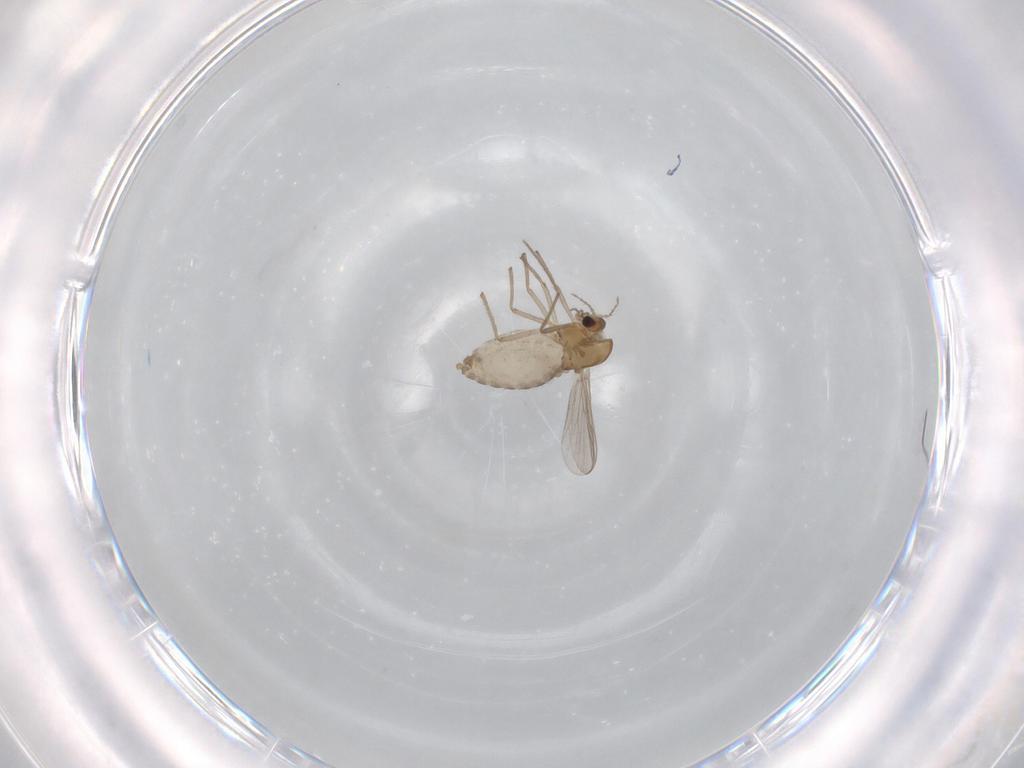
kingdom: Animalia
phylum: Arthropoda
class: Insecta
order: Diptera
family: Chironomidae
